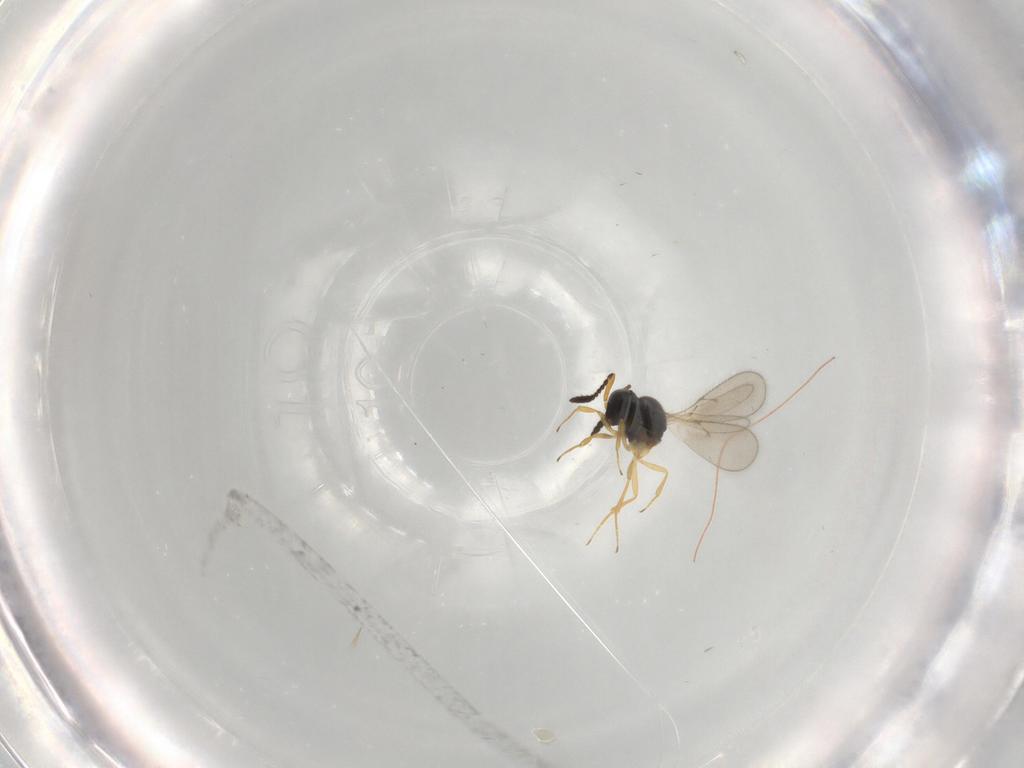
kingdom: Animalia
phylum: Arthropoda
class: Insecta
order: Hymenoptera
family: Scelionidae
